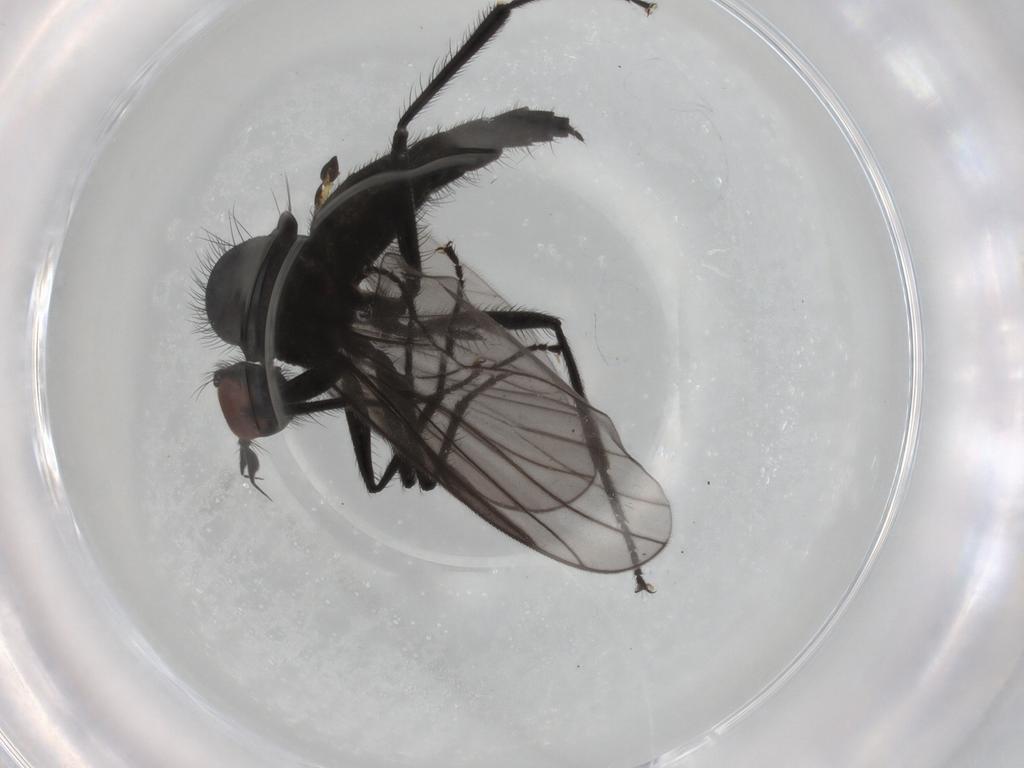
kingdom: Animalia
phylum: Arthropoda
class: Insecta
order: Diptera
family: Hybotidae
